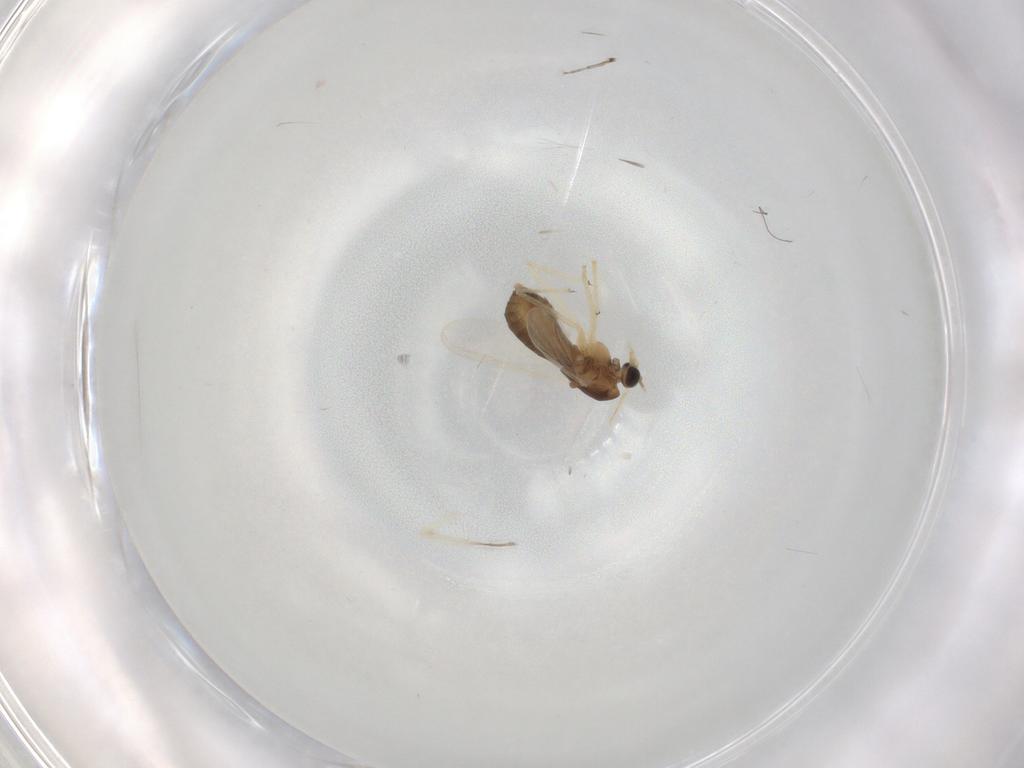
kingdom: Animalia
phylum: Arthropoda
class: Insecta
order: Diptera
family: Chironomidae
